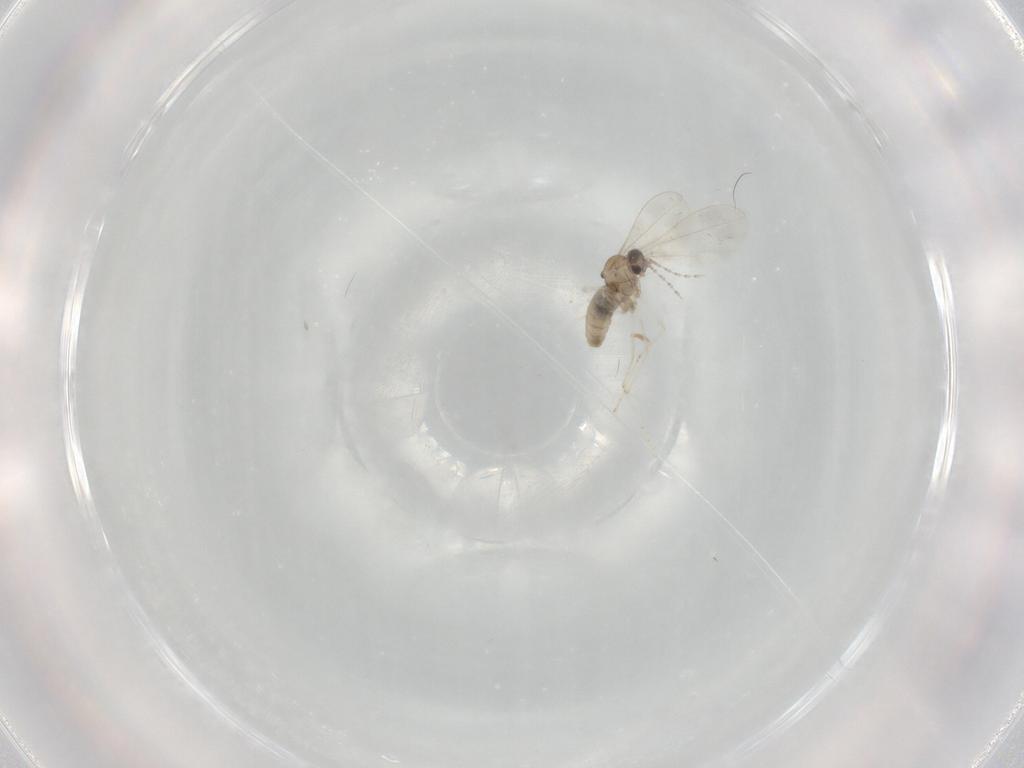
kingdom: Animalia
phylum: Arthropoda
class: Insecta
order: Diptera
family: Cecidomyiidae
